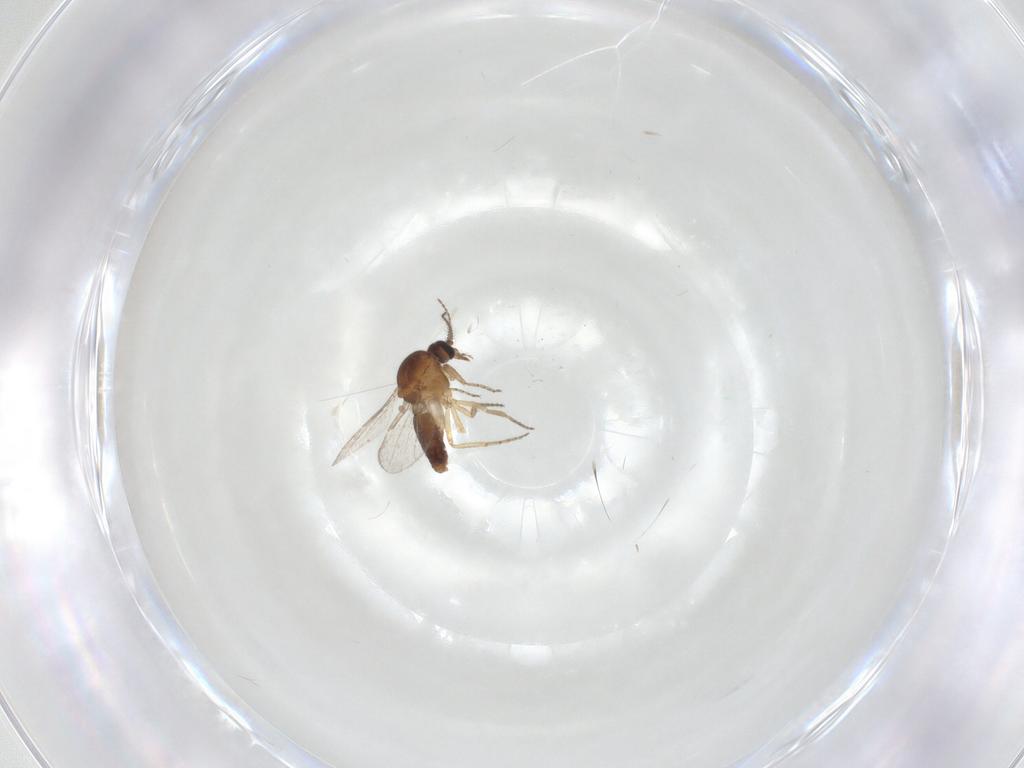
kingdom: Animalia
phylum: Arthropoda
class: Insecta
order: Diptera
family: Ceratopogonidae
